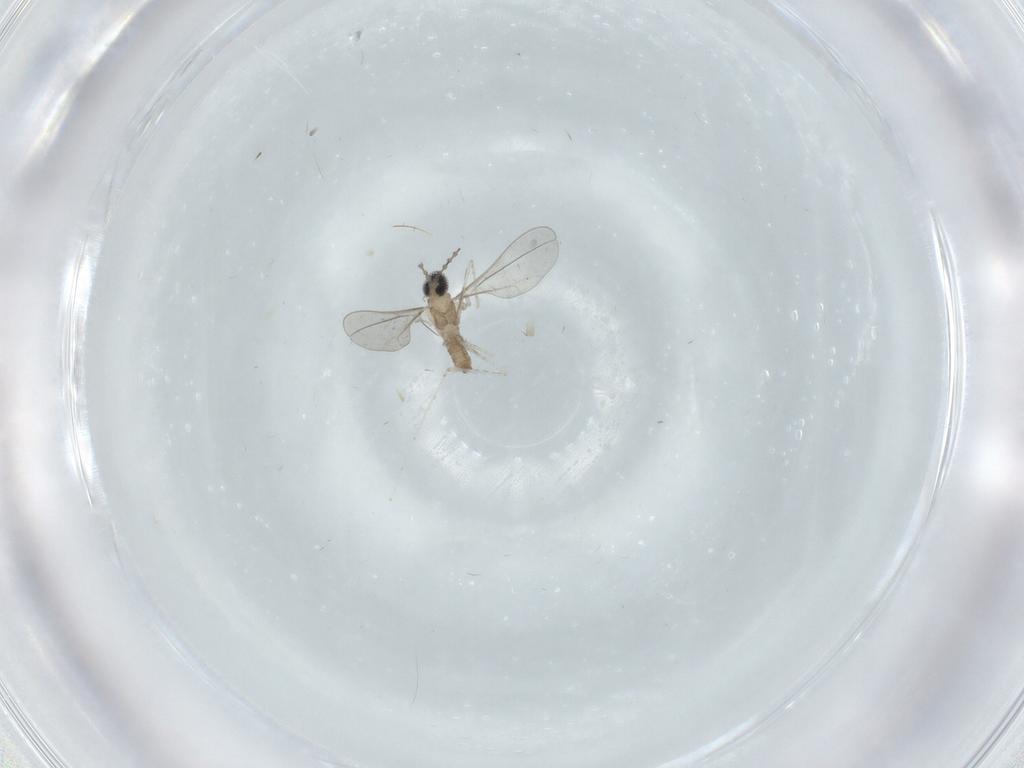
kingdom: Animalia
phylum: Arthropoda
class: Insecta
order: Diptera
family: Cecidomyiidae
